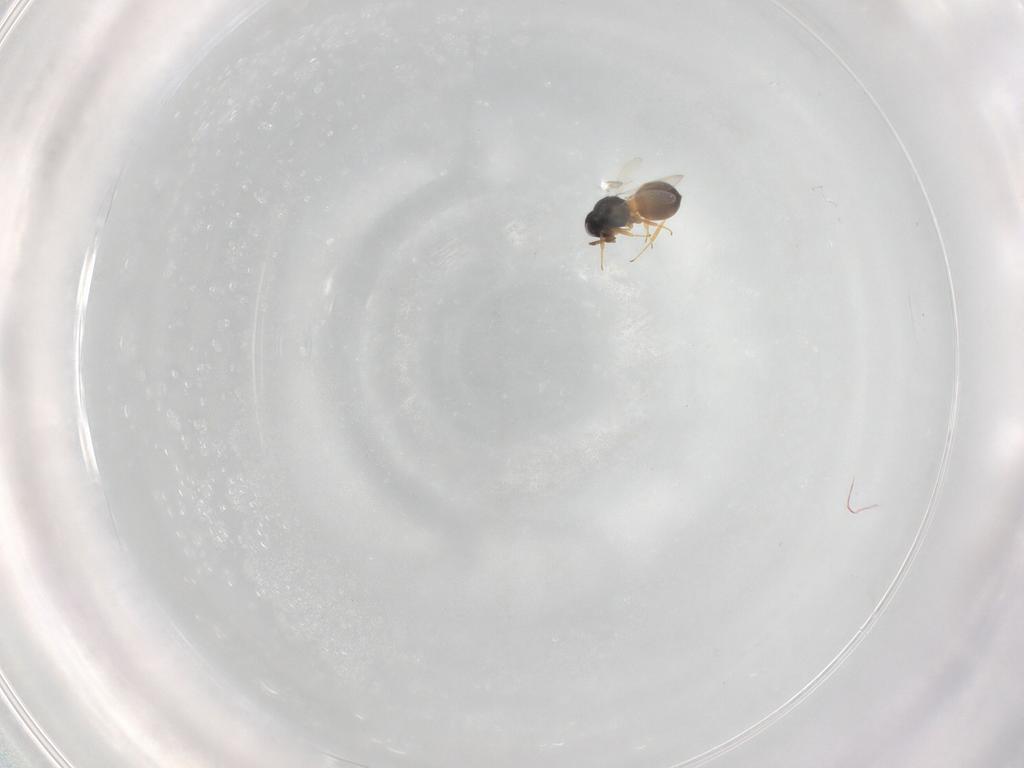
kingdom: Animalia
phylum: Arthropoda
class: Insecta
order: Hymenoptera
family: Scelionidae
